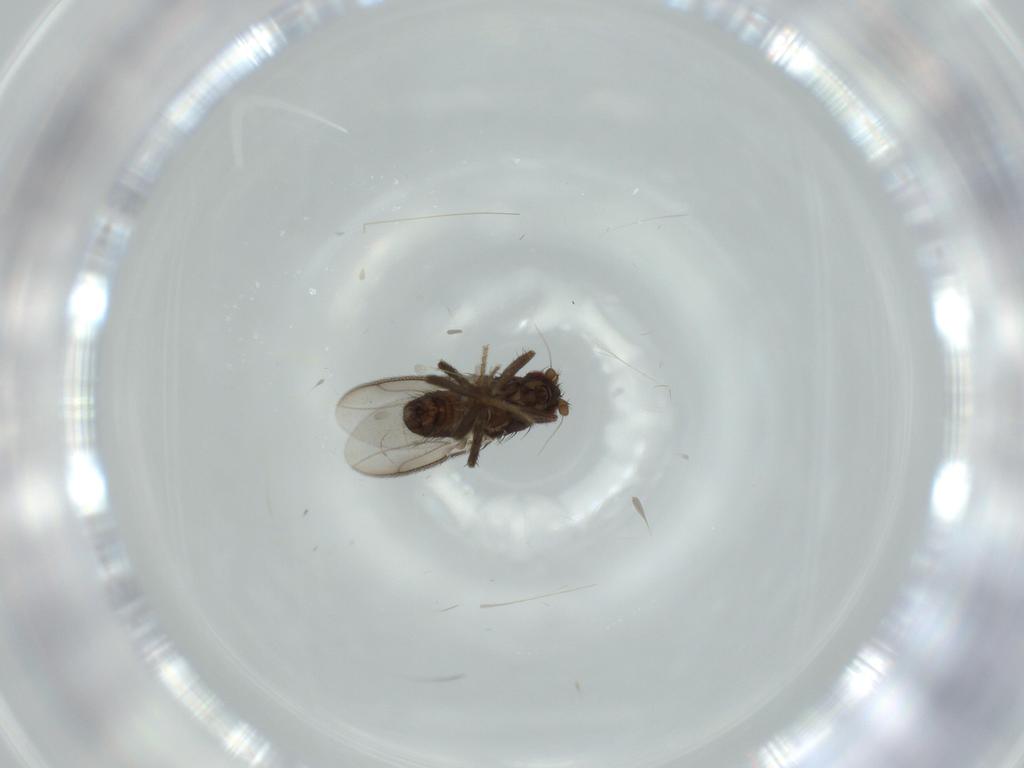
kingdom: Animalia
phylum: Arthropoda
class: Insecta
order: Diptera
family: Sphaeroceridae
